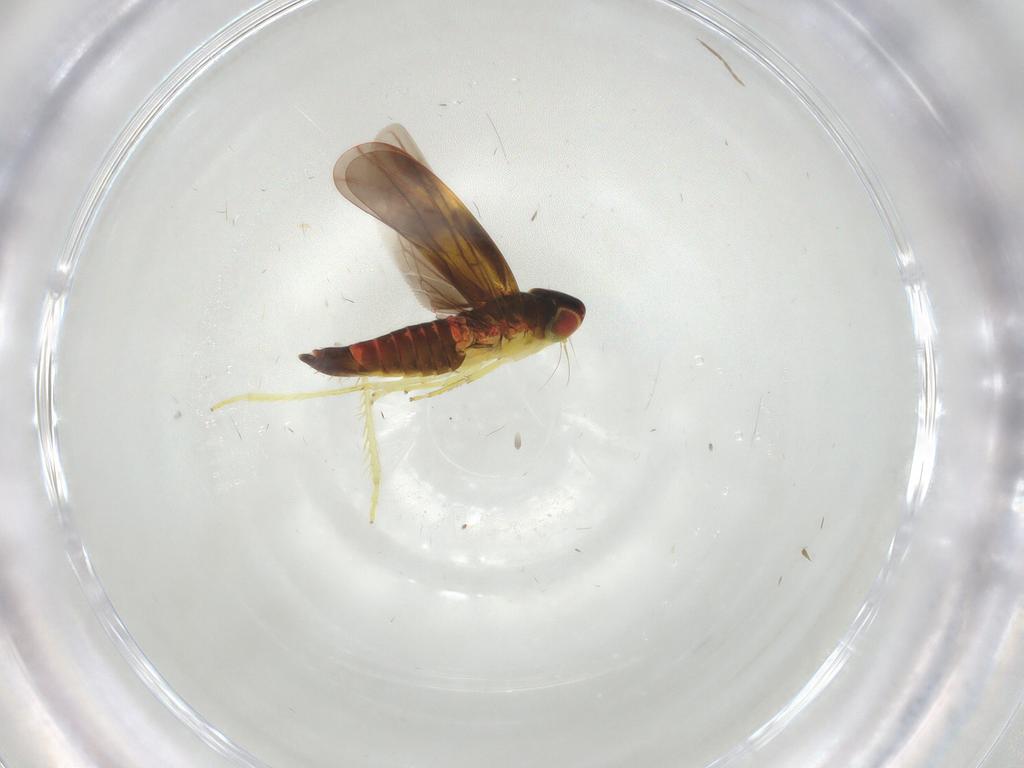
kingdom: Animalia
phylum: Arthropoda
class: Insecta
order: Hemiptera
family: Cicadellidae
